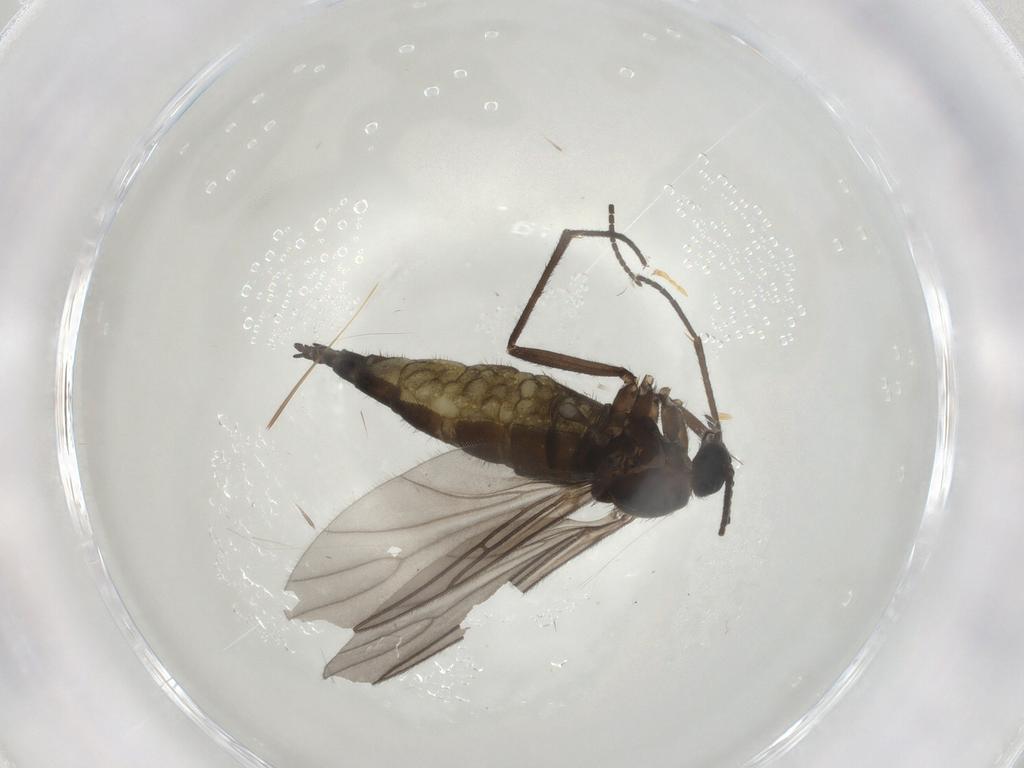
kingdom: Animalia
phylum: Arthropoda
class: Insecta
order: Diptera
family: Sciaridae
